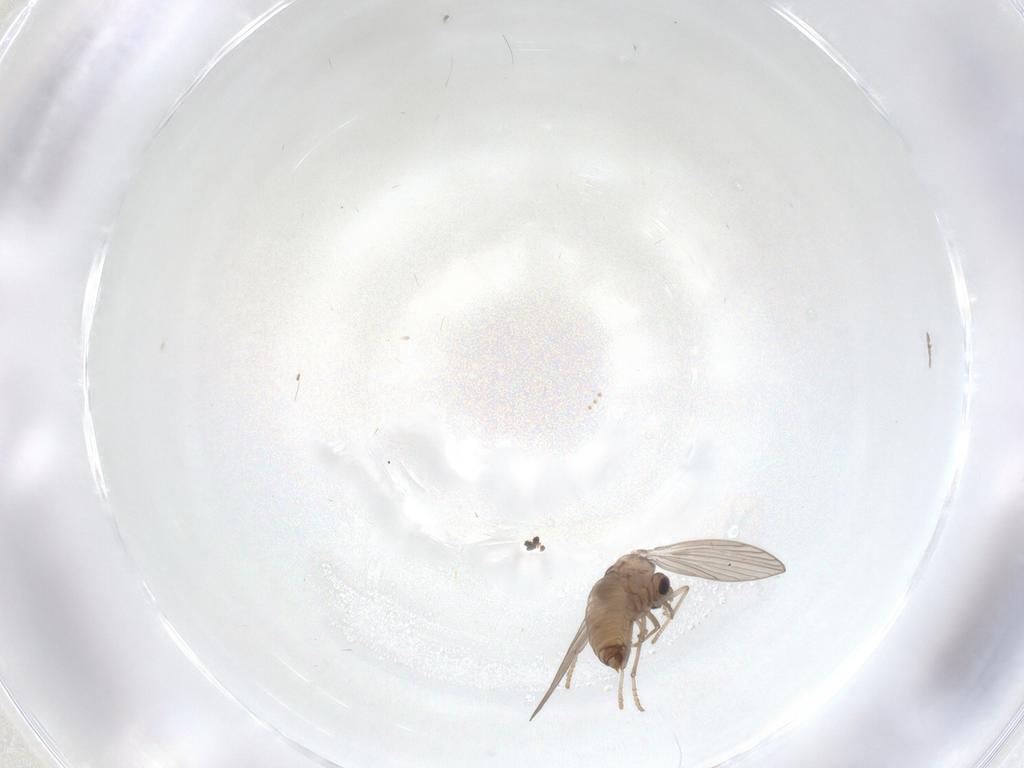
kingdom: Animalia
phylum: Arthropoda
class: Insecta
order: Diptera
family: Psychodidae
